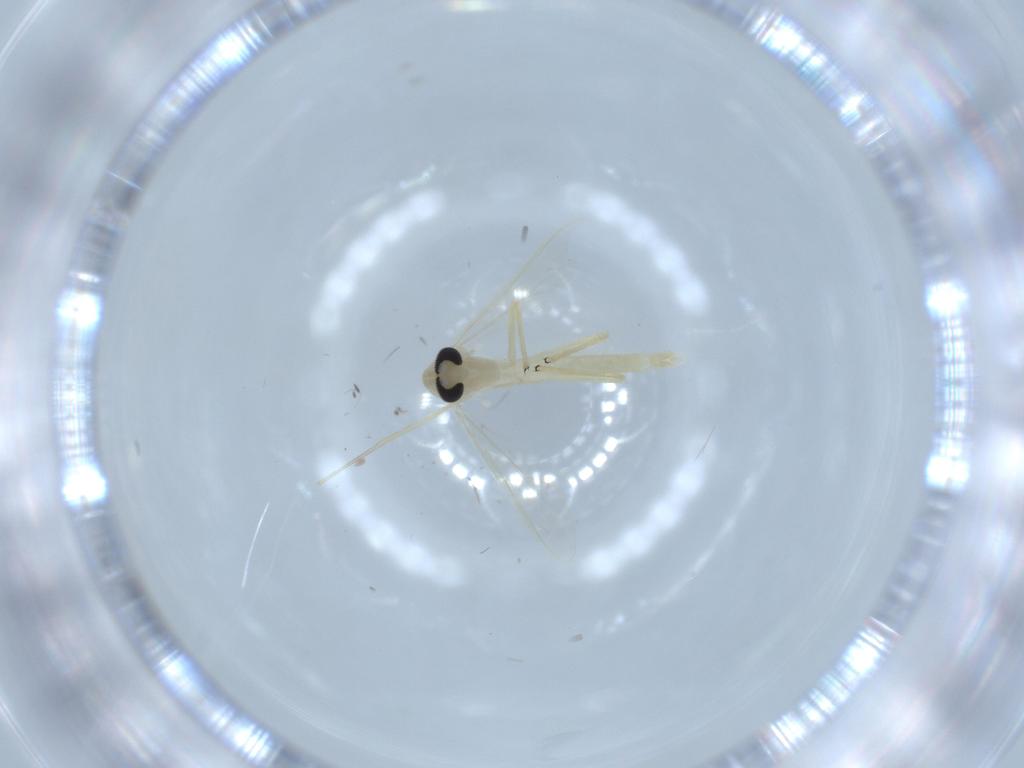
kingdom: Animalia
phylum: Arthropoda
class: Insecta
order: Diptera
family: Chironomidae
